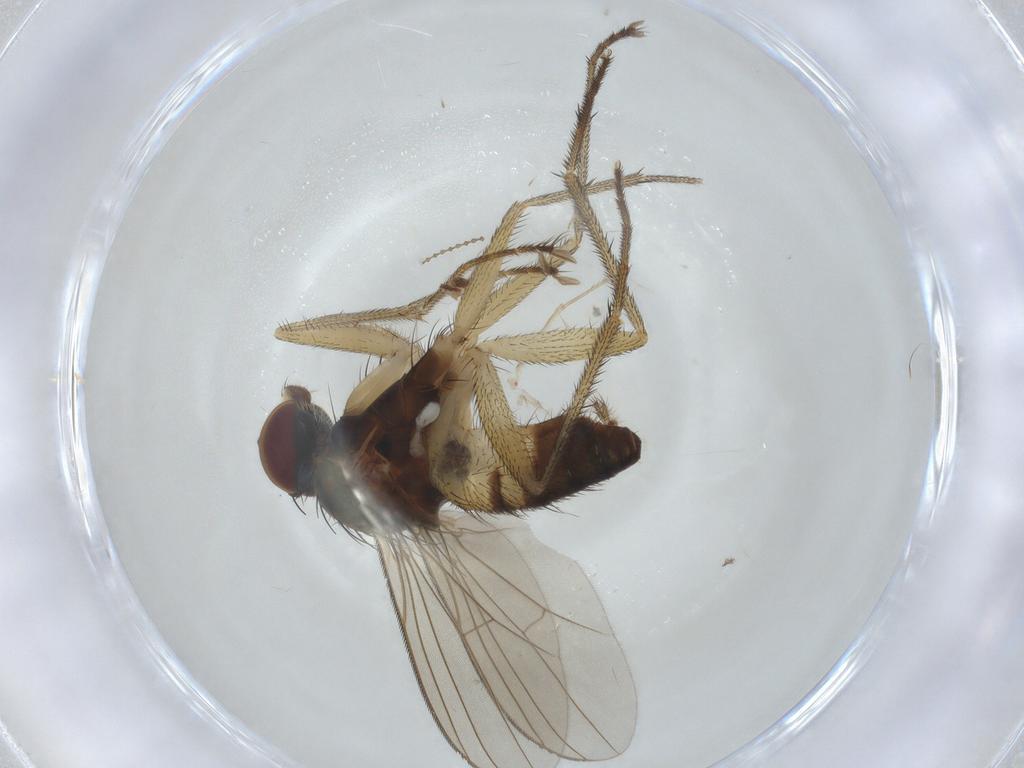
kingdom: Animalia
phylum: Arthropoda
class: Insecta
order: Diptera
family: Dolichopodidae
